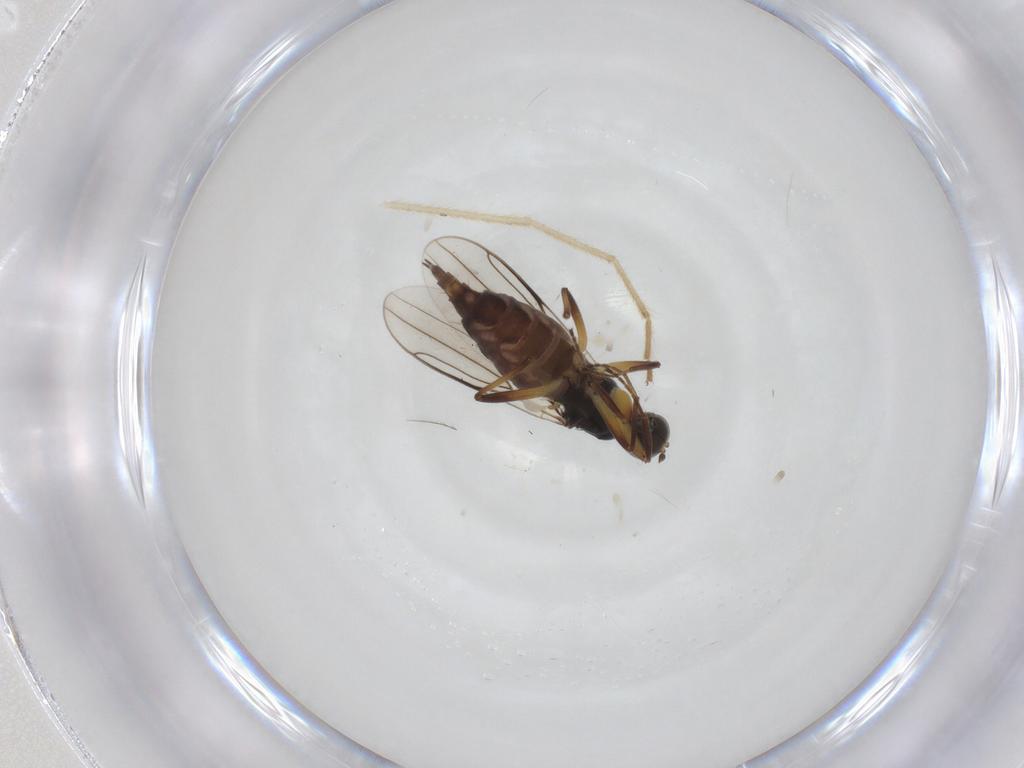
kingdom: Animalia
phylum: Arthropoda
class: Insecta
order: Diptera
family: Hybotidae
